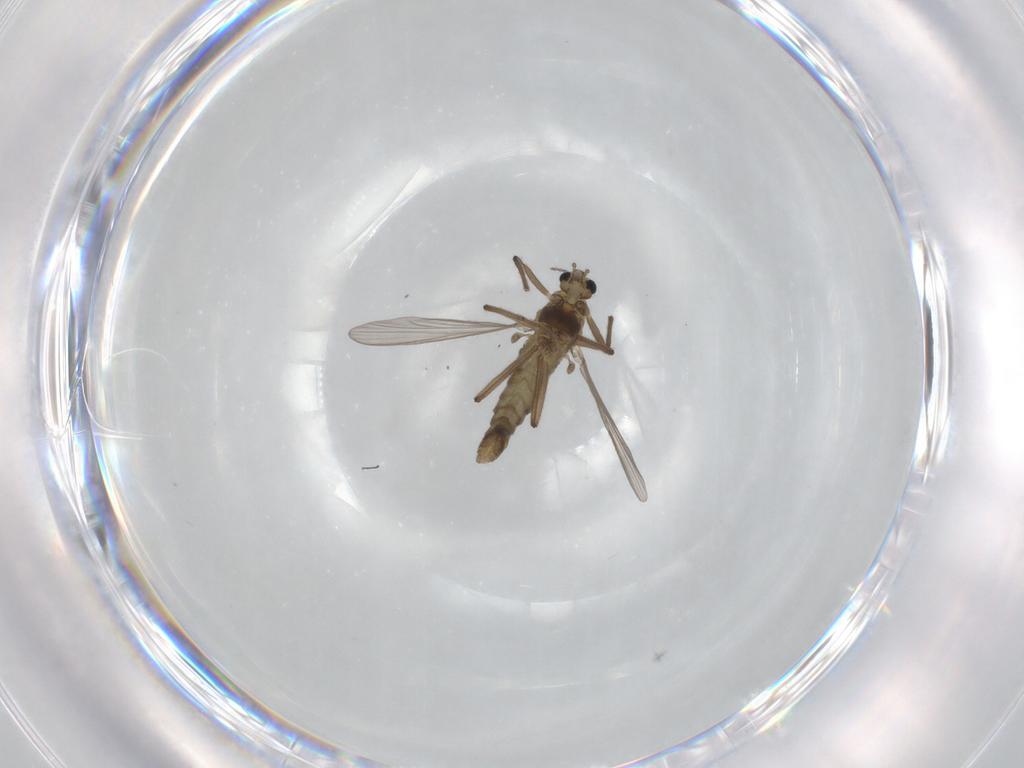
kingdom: Animalia
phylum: Arthropoda
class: Insecta
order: Diptera
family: Chironomidae
